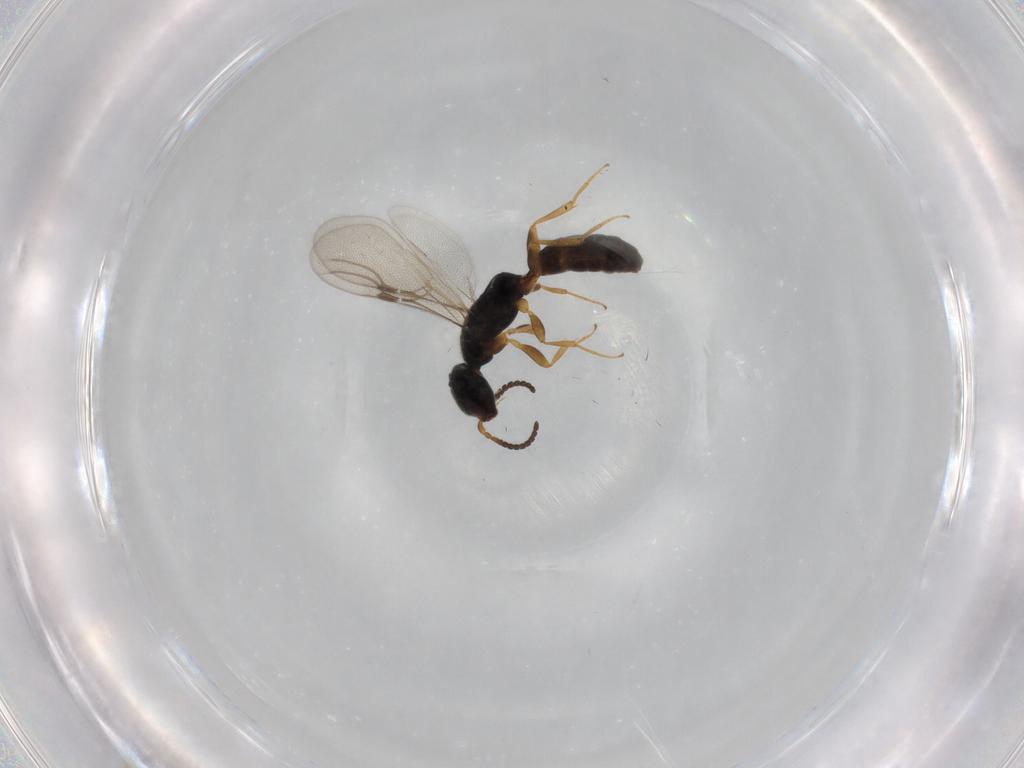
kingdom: Animalia
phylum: Arthropoda
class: Insecta
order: Hymenoptera
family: Bethylidae
